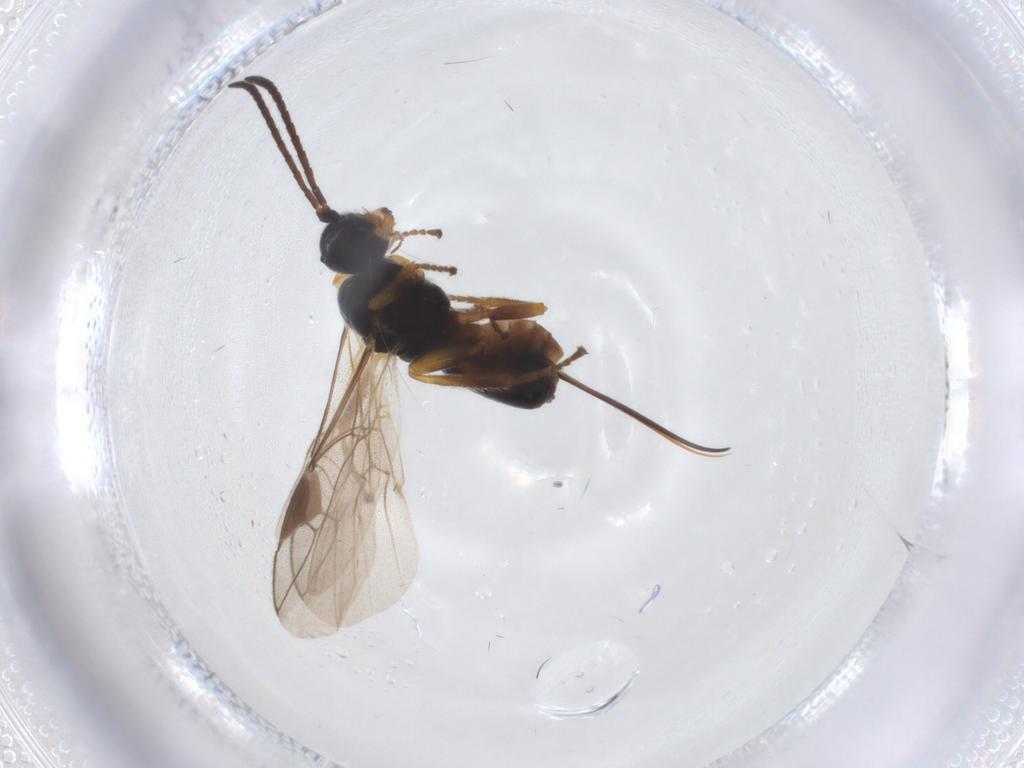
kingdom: Animalia
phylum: Arthropoda
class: Insecta
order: Hymenoptera
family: Braconidae
